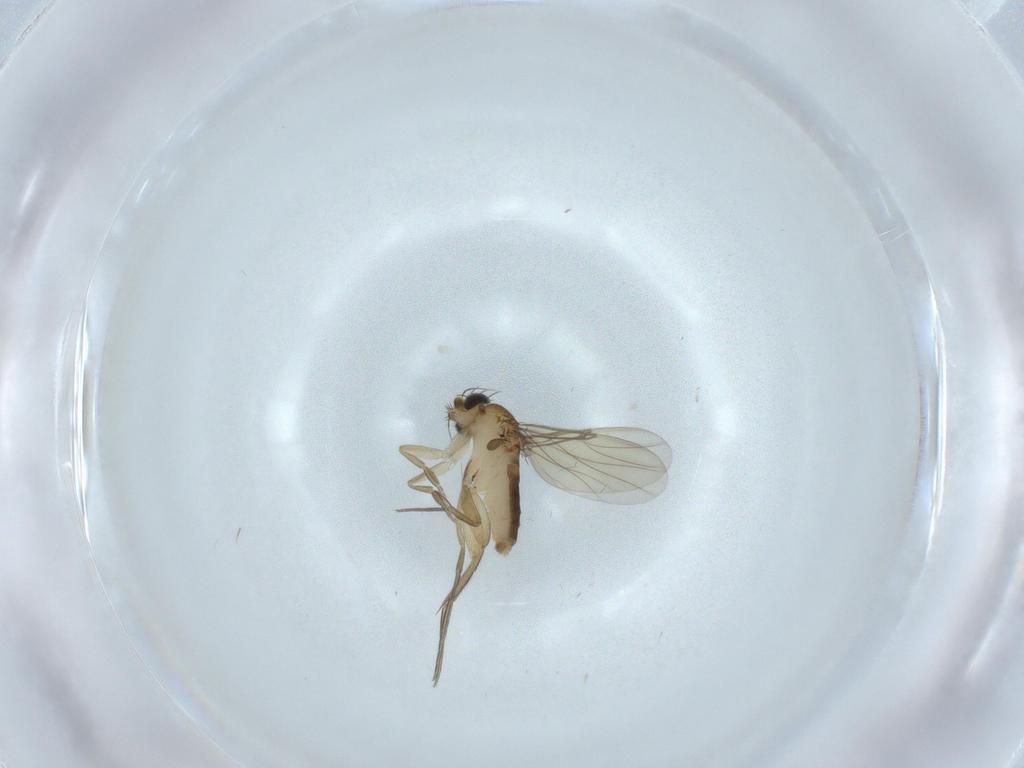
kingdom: Animalia
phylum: Arthropoda
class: Insecta
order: Diptera
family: Phoridae
